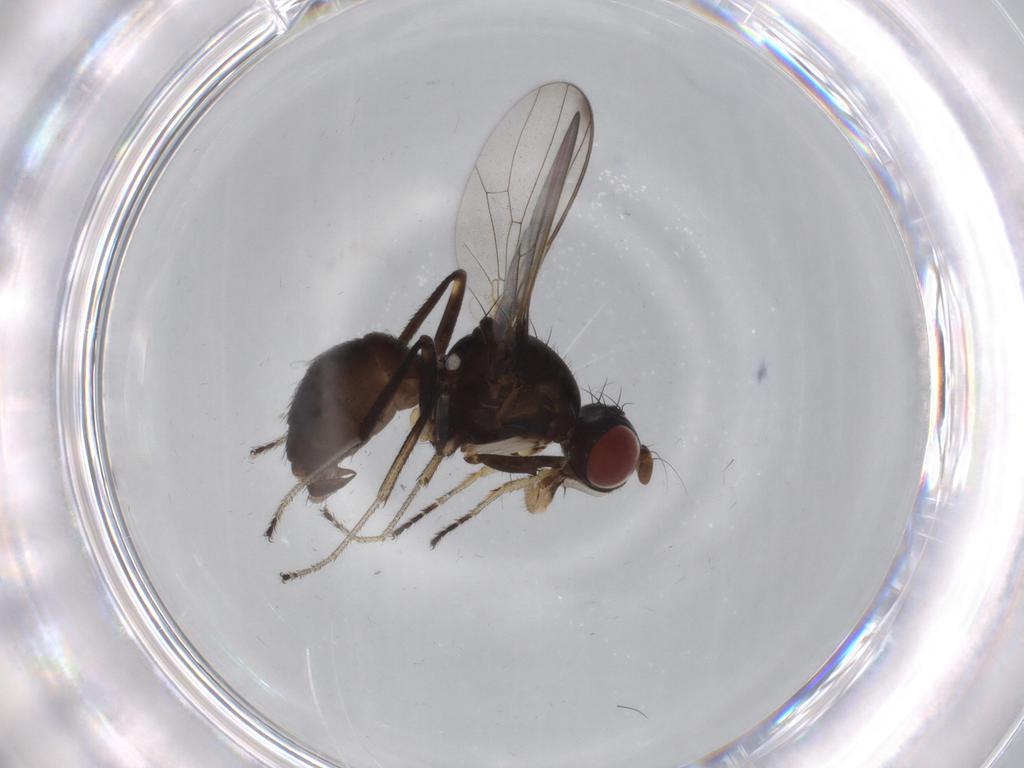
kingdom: Animalia
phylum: Arthropoda
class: Insecta
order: Diptera
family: Sepsidae
